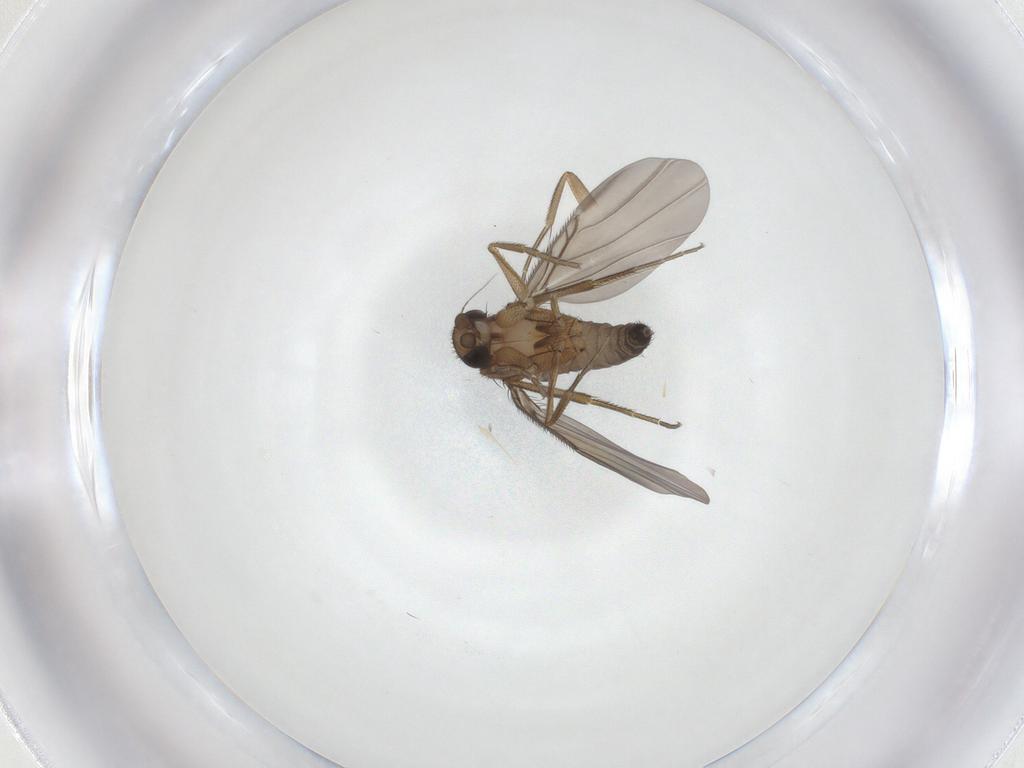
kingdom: Animalia
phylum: Arthropoda
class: Insecta
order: Diptera
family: Phoridae
